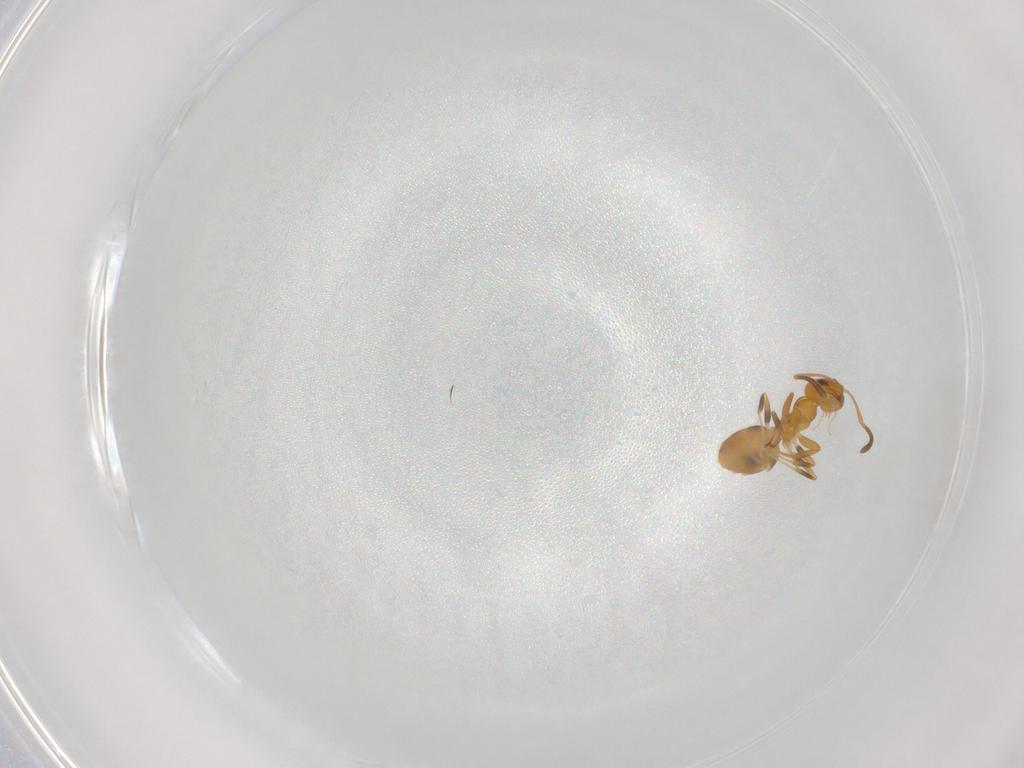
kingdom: Animalia
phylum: Arthropoda
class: Insecta
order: Hymenoptera
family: Formicidae
